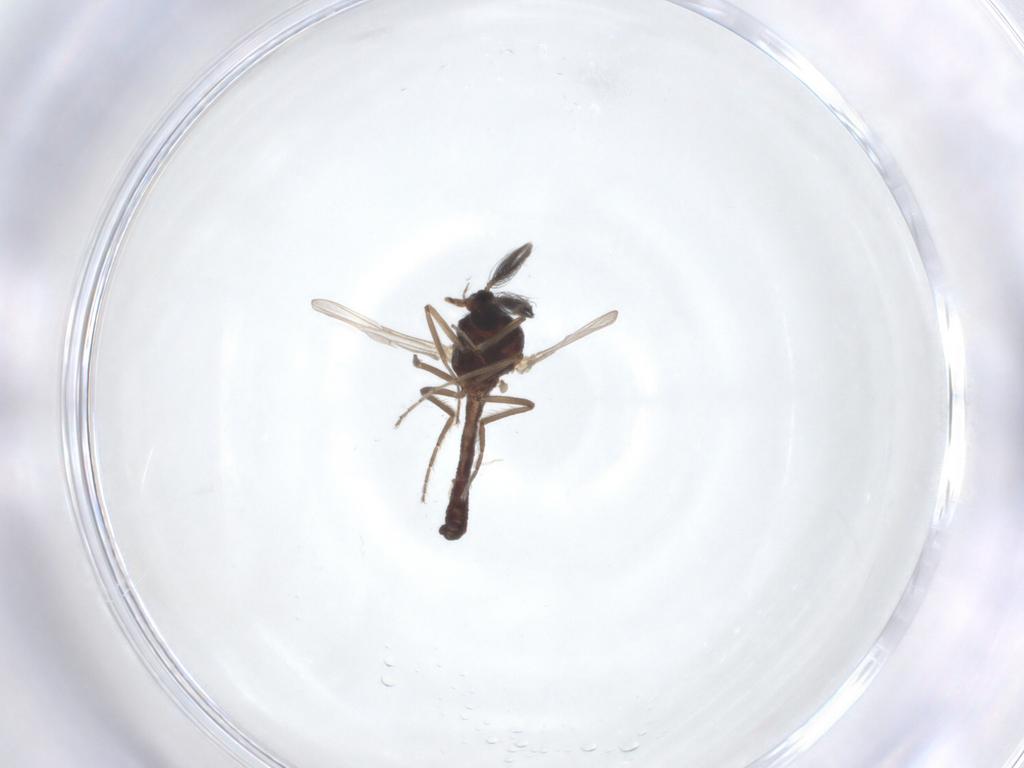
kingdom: Animalia
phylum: Arthropoda
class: Insecta
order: Diptera
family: Ceratopogonidae
